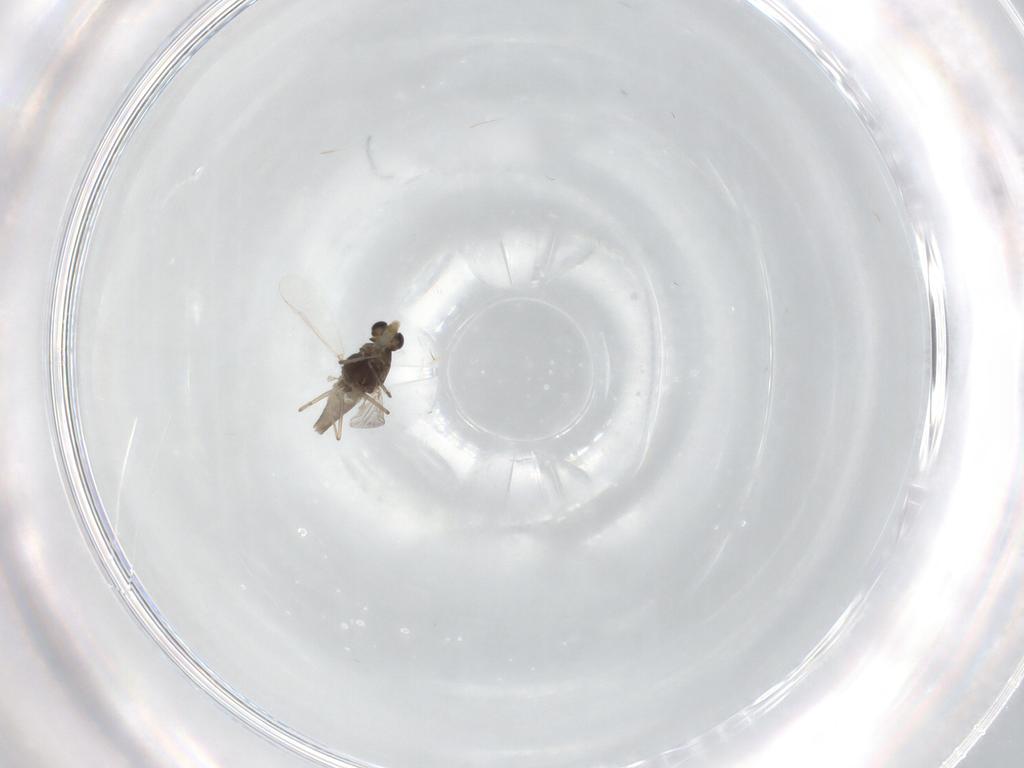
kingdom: Animalia
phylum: Arthropoda
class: Insecta
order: Diptera
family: Chironomidae
